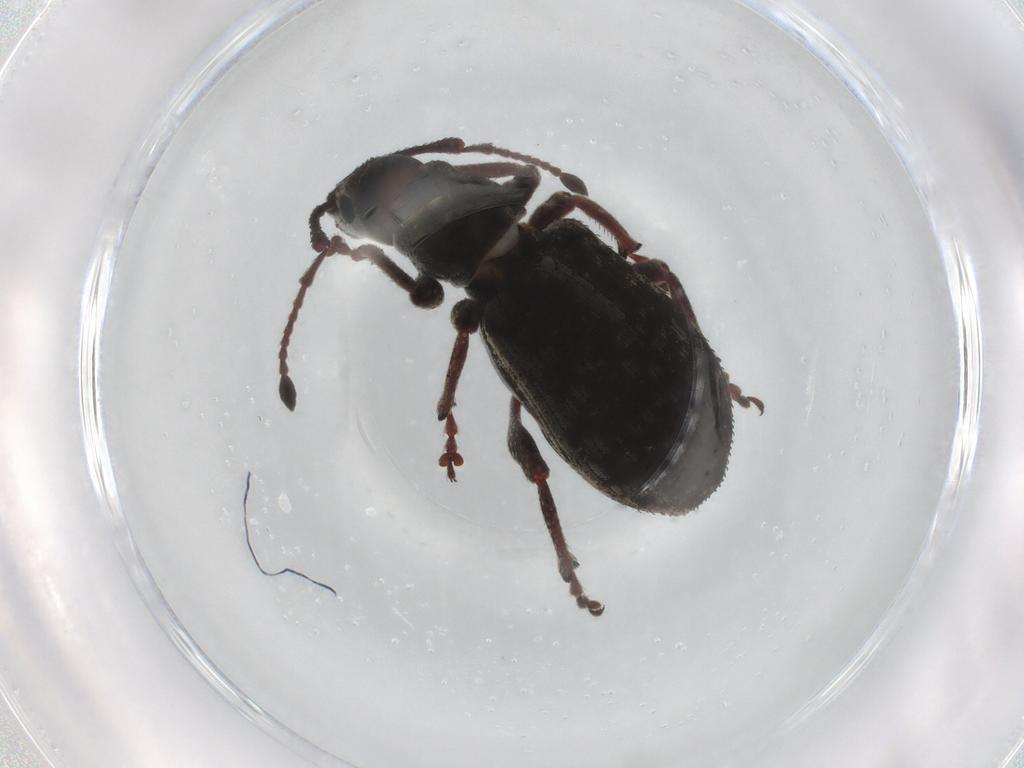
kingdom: Animalia
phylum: Arthropoda
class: Insecta
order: Coleoptera
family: Curculionidae
